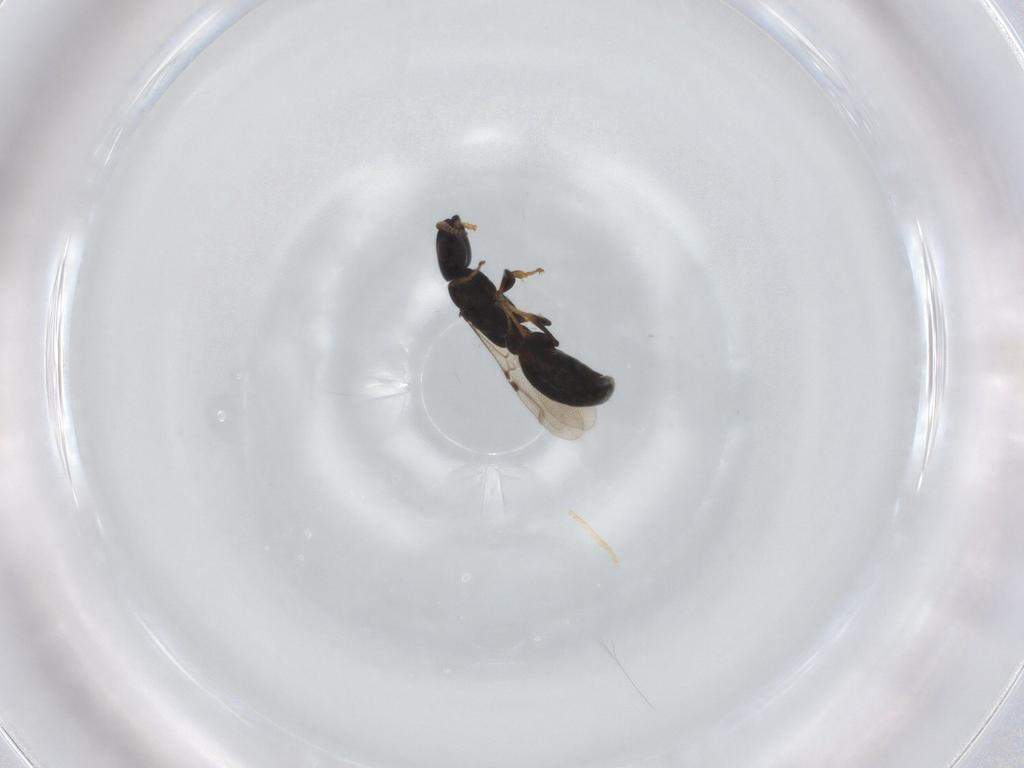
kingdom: Animalia
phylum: Arthropoda
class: Insecta
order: Hymenoptera
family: Bethylidae
